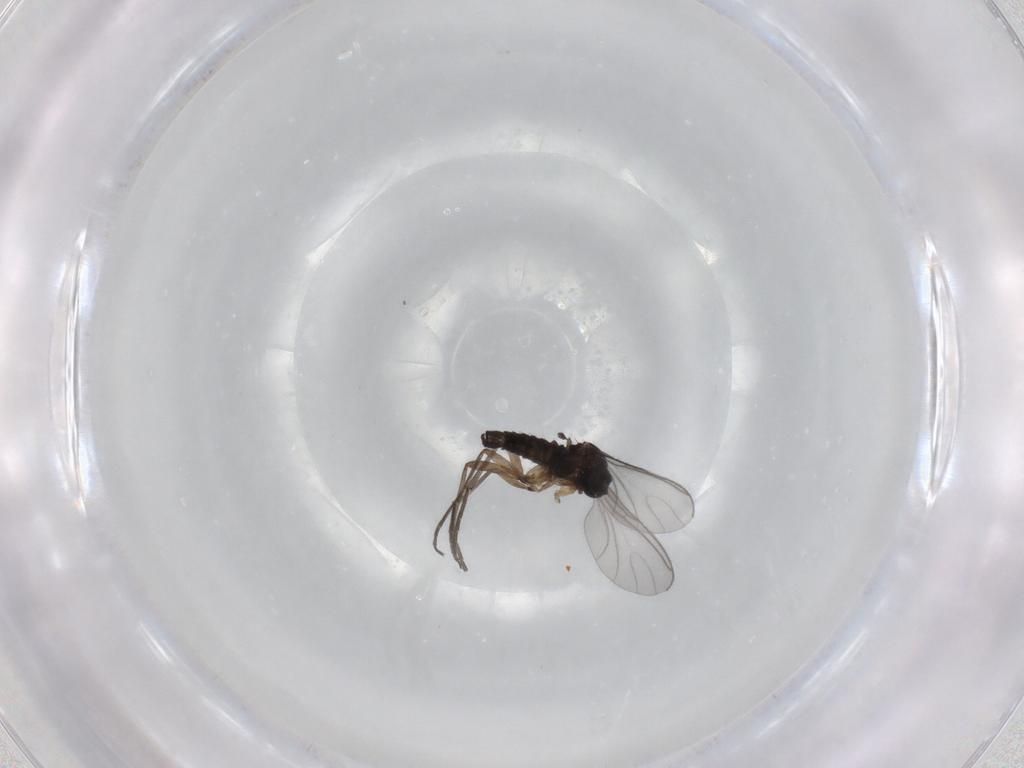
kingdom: Animalia
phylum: Arthropoda
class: Insecta
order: Diptera
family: Sciaridae
